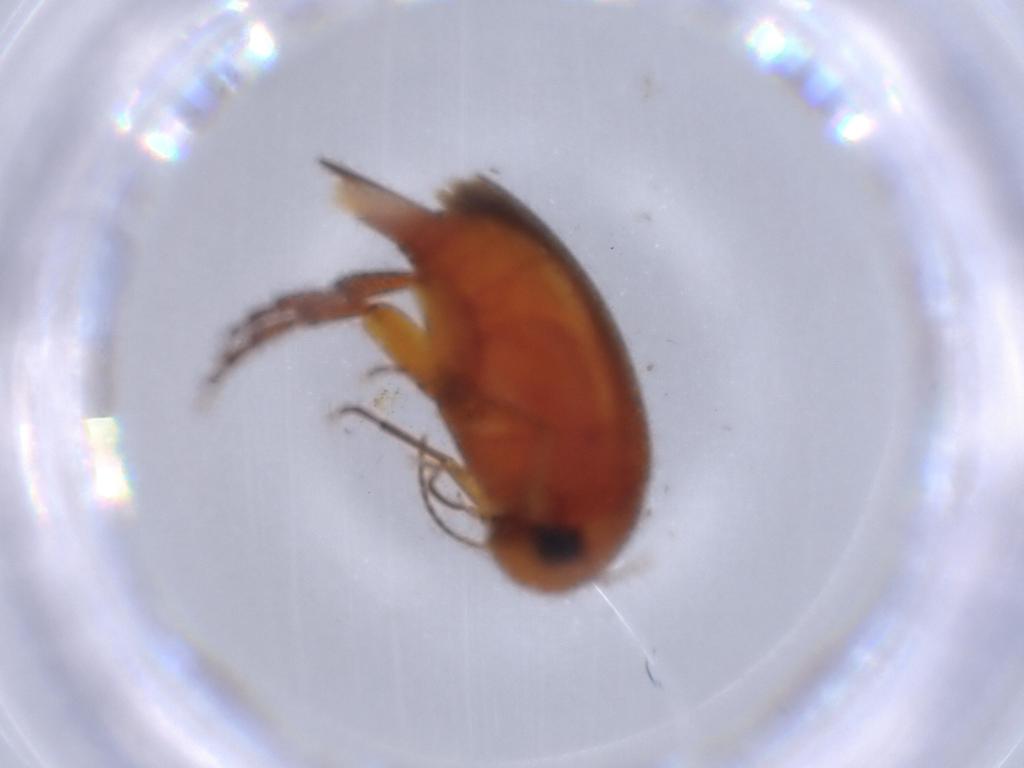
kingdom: Animalia
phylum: Arthropoda
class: Insecta
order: Coleoptera
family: Mordellidae
